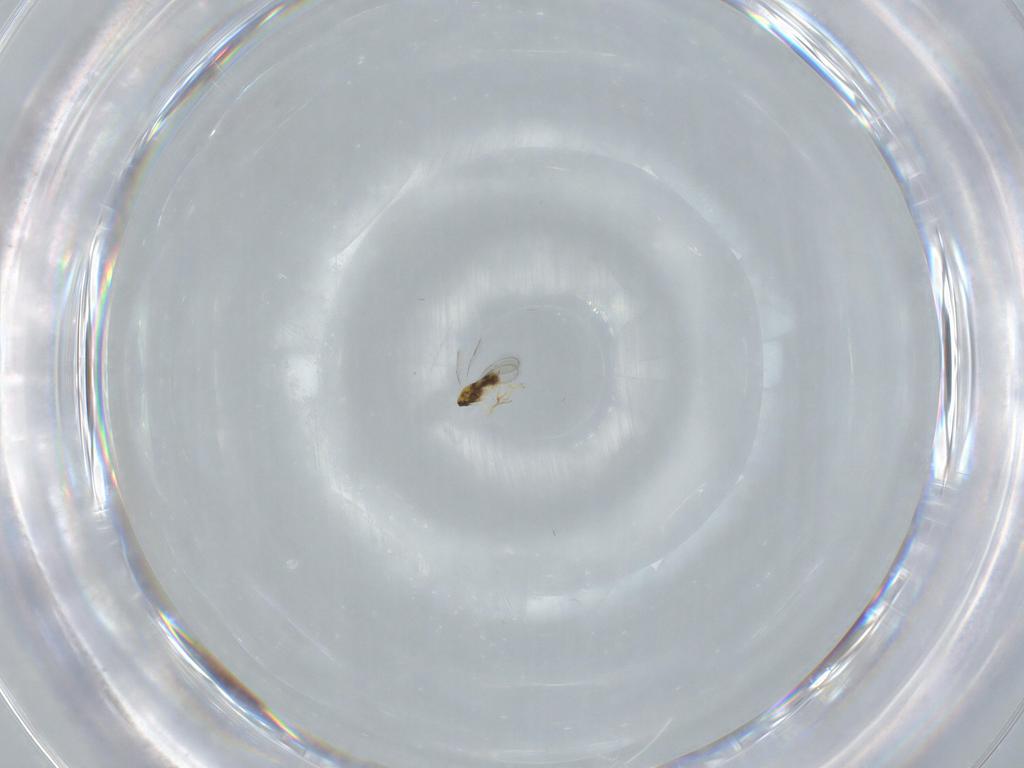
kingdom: Animalia
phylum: Arthropoda
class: Insecta
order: Hymenoptera
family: Aphelinidae
